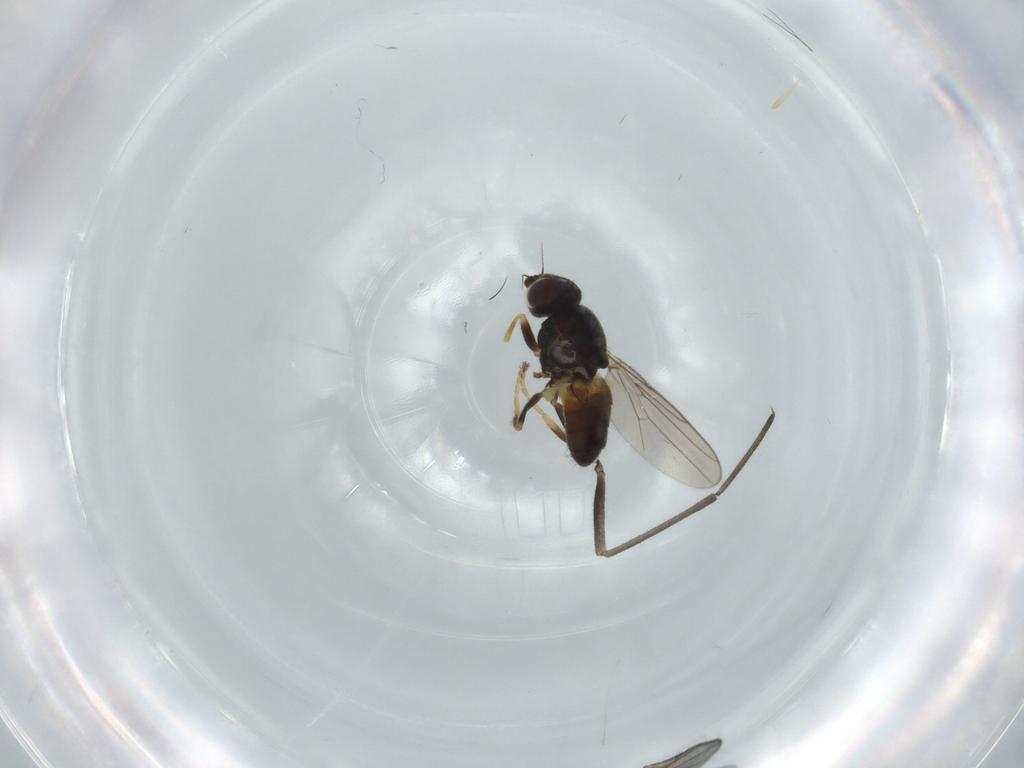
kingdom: Animalia
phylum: Arthropoda
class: Insecta
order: Diptera
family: Chloropidae
